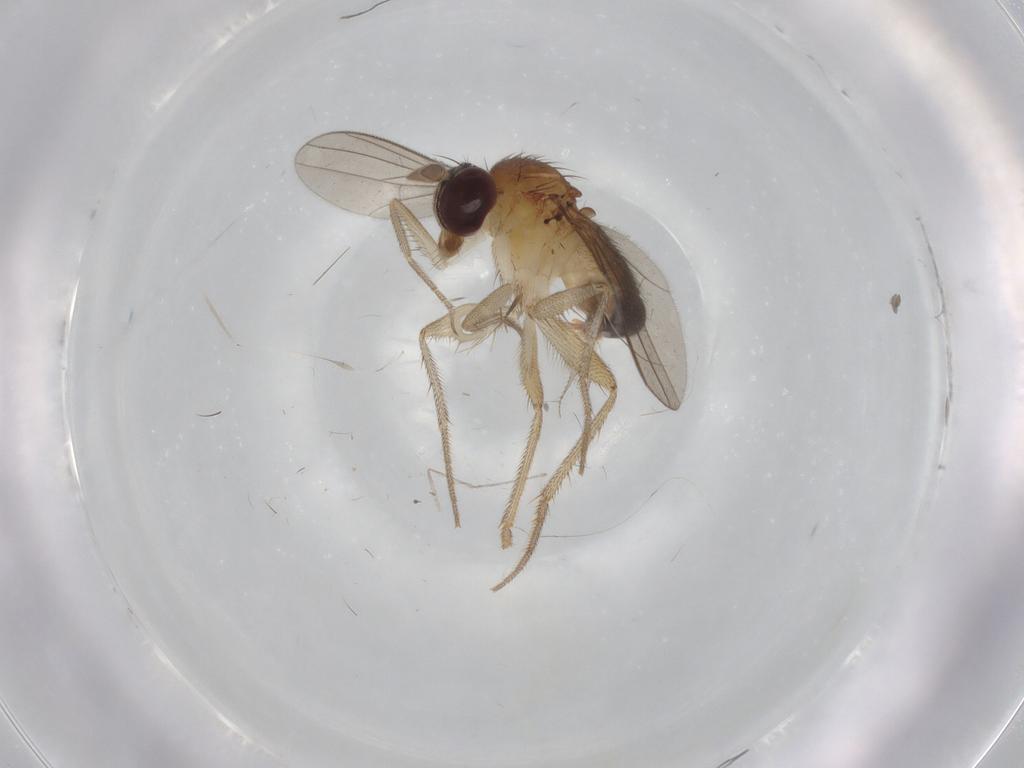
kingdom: Animalia
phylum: Arthropoda
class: Insecta
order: Diptera
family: Dolichopodidae
